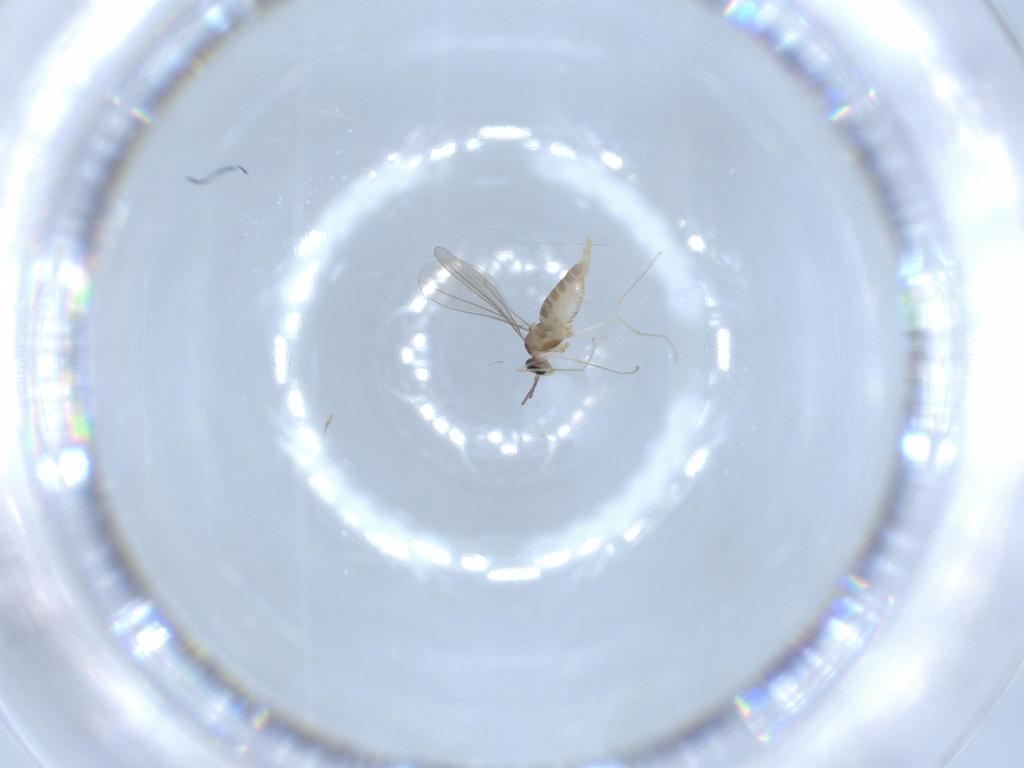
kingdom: Animalia
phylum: Arthropoda
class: Insecta
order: Diptera
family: Cecidomyiidae
